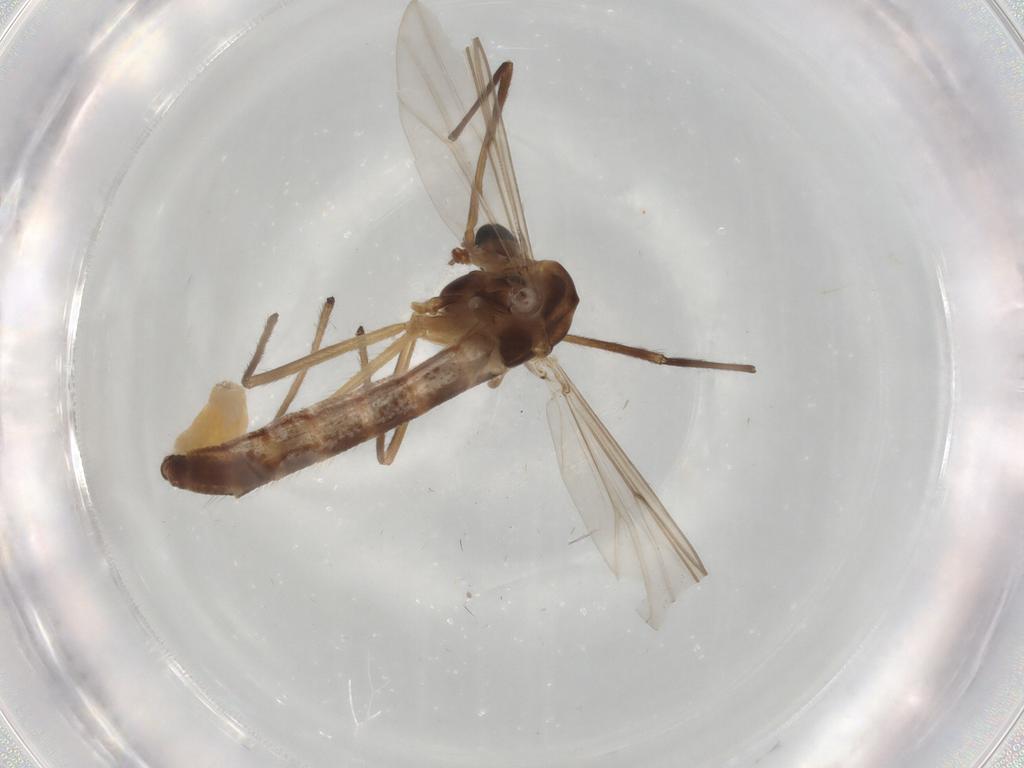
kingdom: Animalia
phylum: Arthropoda
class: Insecta
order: Diptera
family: Chironomidae
